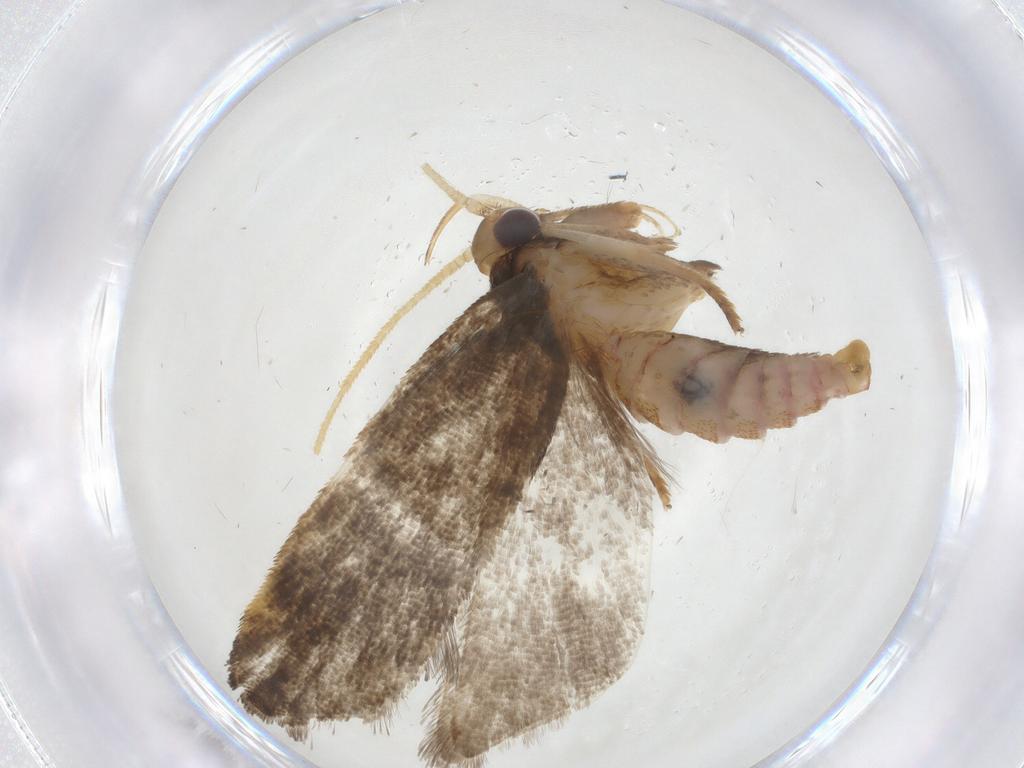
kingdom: Animalia
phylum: Arthropoda
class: Insecta
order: Lepidoptera
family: Lecithoceridae
